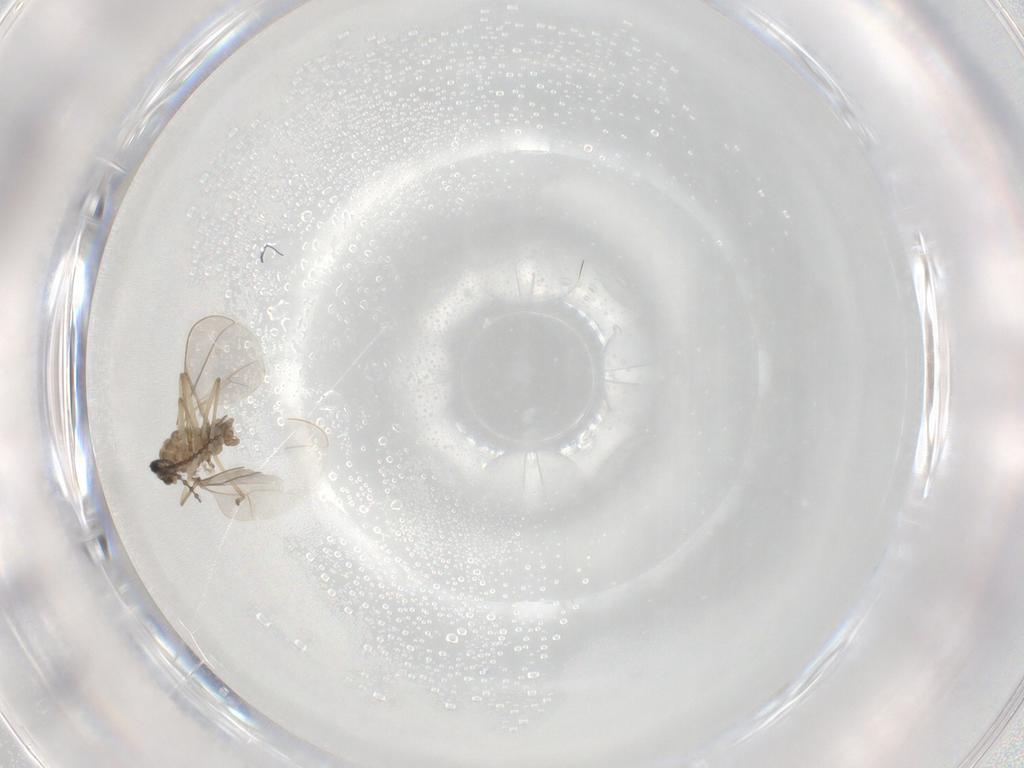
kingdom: Animalia
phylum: Arthropoda
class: Insecta
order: Diptera
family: Cecidomyiidae
